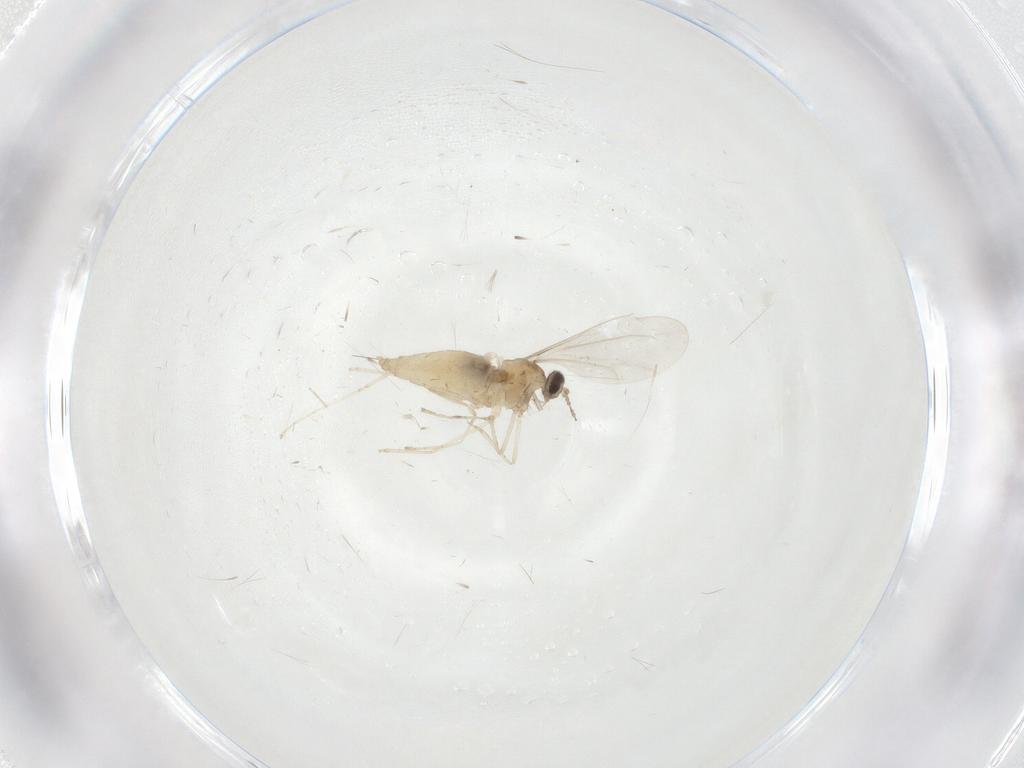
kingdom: Animalia
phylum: Arthropoda
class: Insecta
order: Diptera
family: Cecidomyiidae
